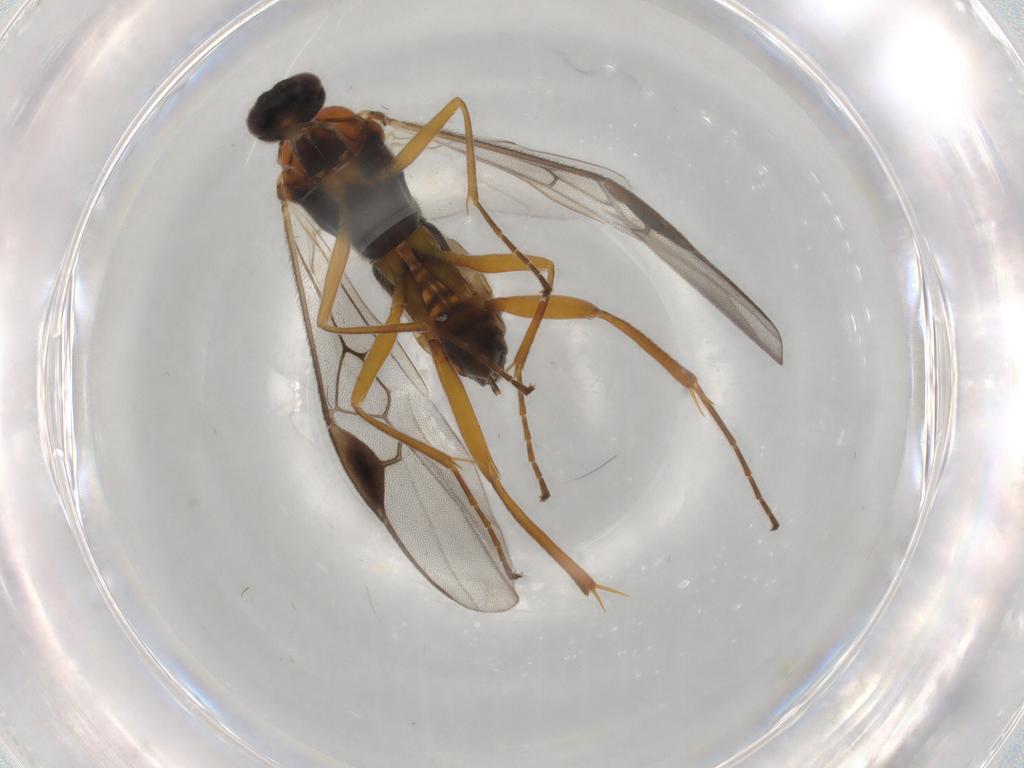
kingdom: Animalia
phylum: Arthropoda
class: Insecta
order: Hymenoptera
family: Braconidae
